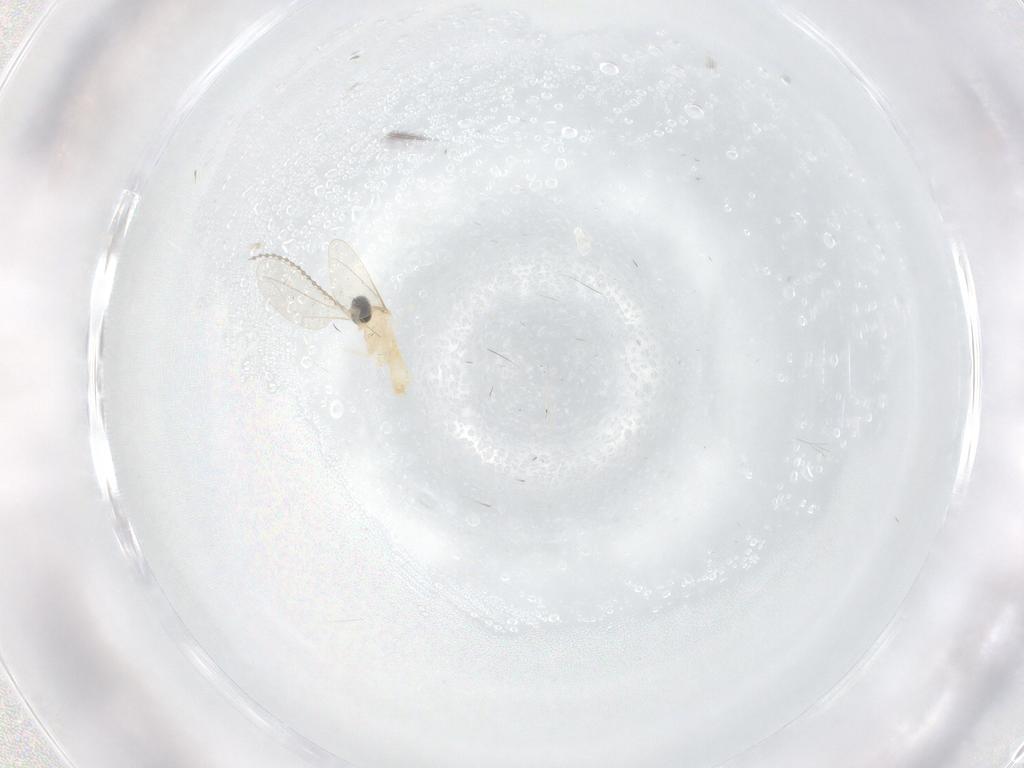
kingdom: Animalia
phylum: Arthropoda
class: Insecta
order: Diptera
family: Cecidomyiidae
